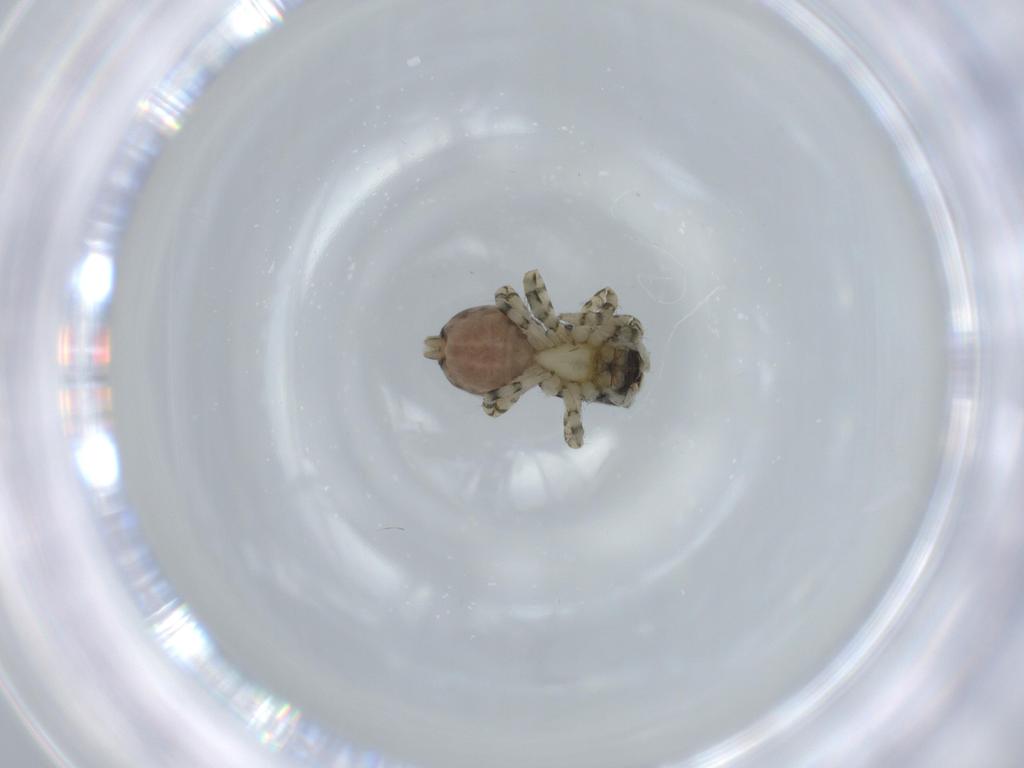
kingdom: Animalia
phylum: Arthropoda
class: Arachnida
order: Araneae
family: Salticidae
